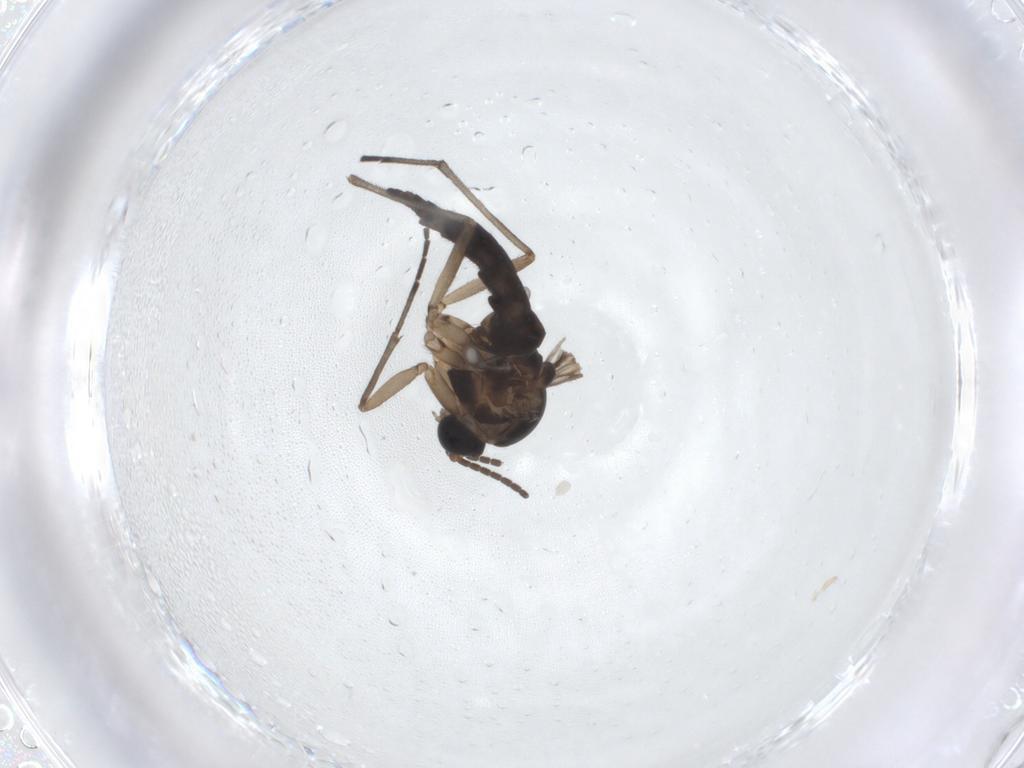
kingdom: Animalia
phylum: Arthropoda
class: Insecta
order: Diptera
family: Sciaridae
